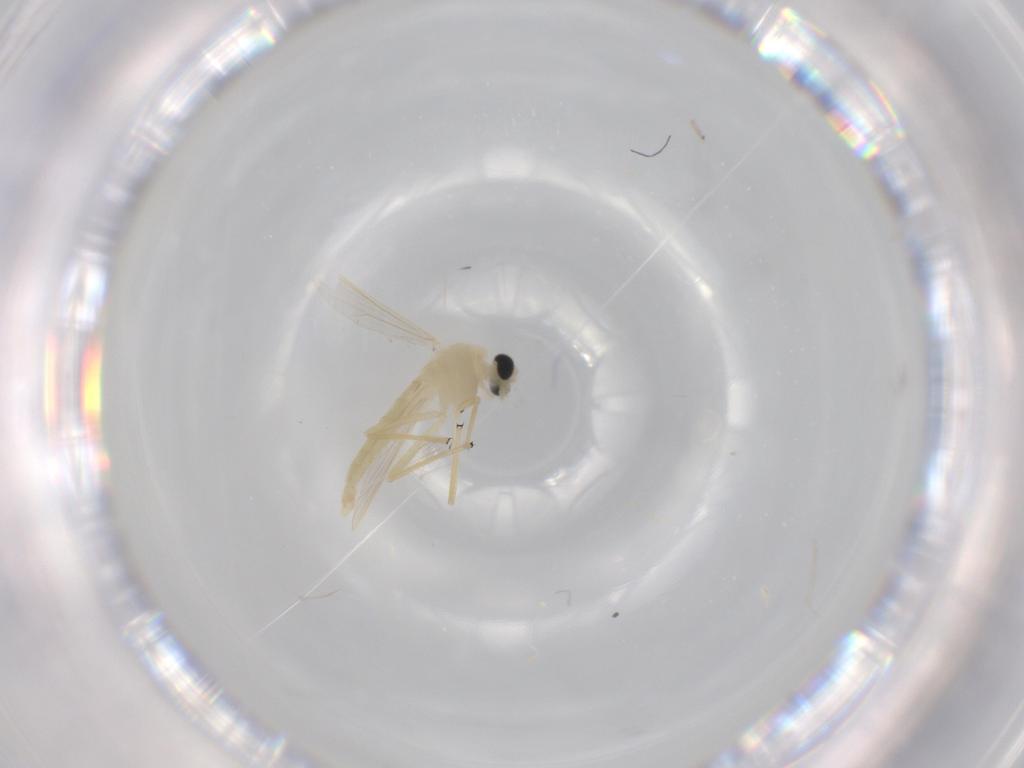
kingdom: Animalia
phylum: Arthropoda
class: Insecta
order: Diptera
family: Chironomidae
